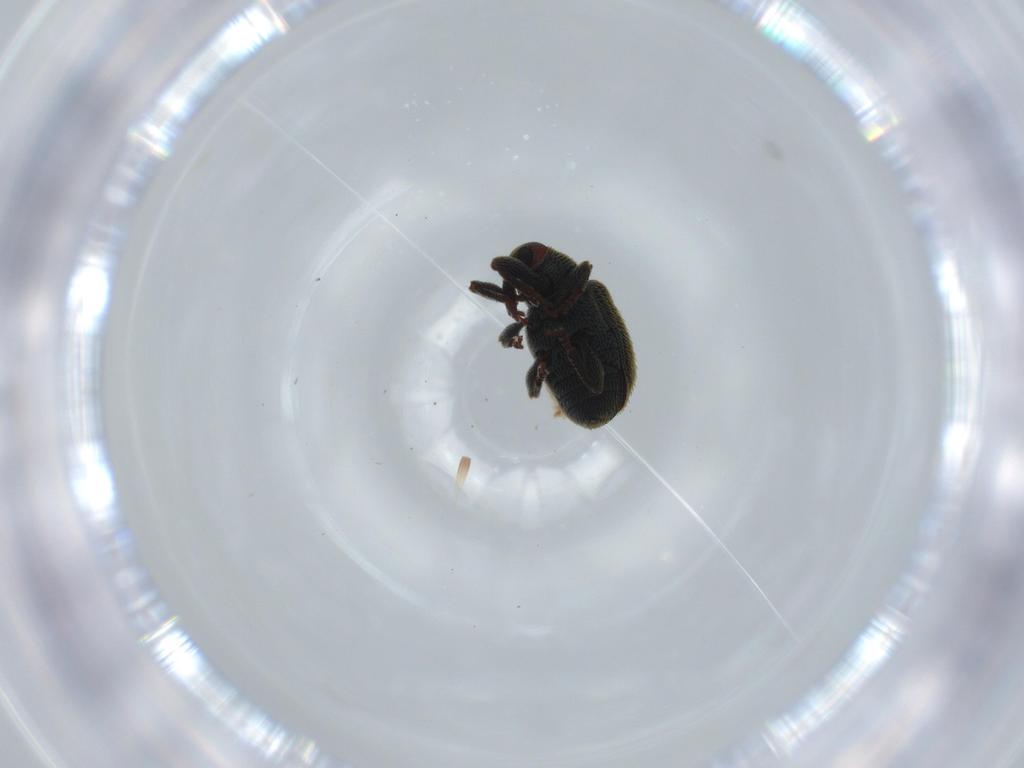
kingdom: Animalia
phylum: Arthropoda
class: Insecta
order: Coleoptera
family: Curculionidae
